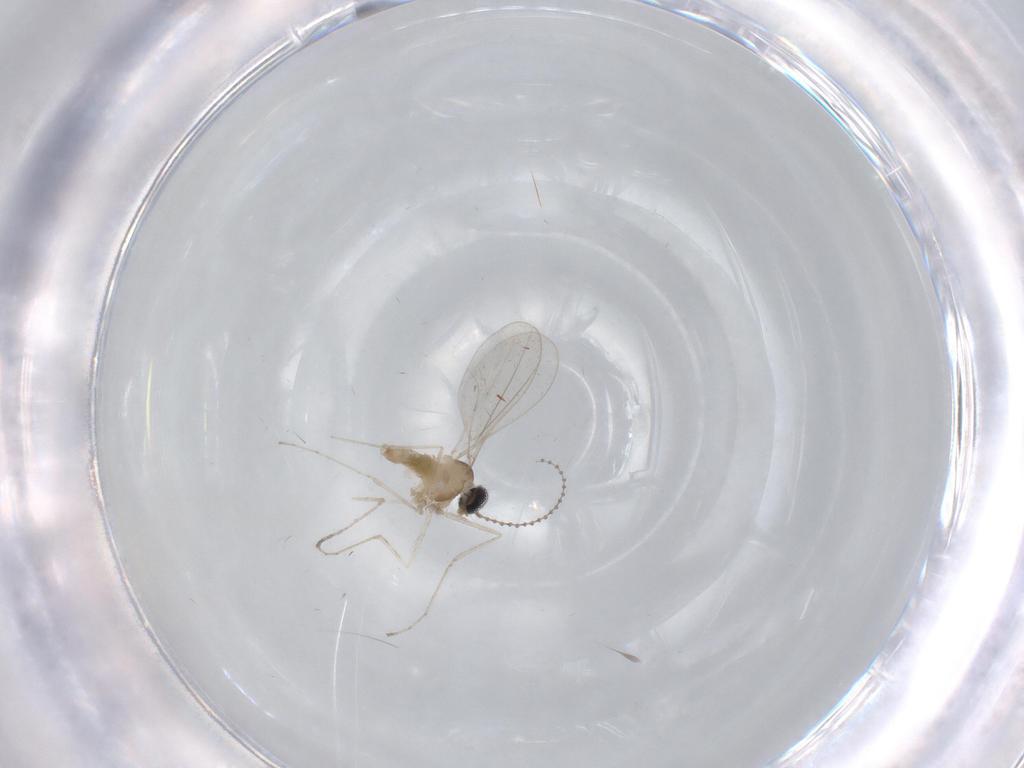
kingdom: Animalia
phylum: Arthropoda
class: Insecta
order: Diptera
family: Cecidomyiidae
